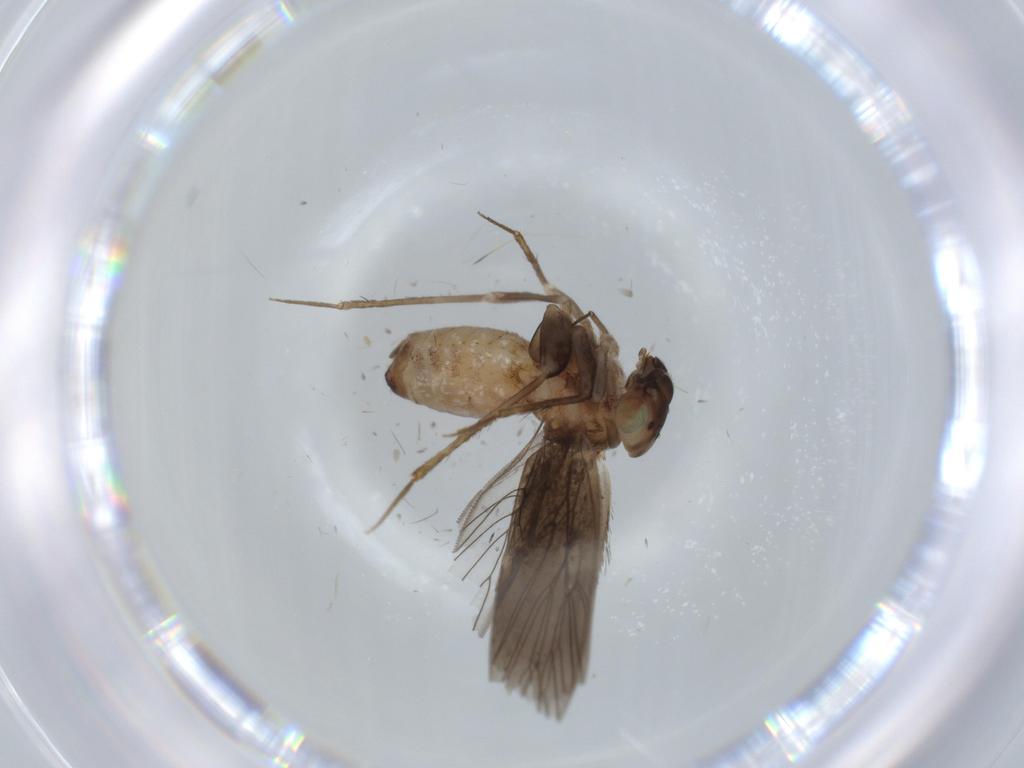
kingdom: Animalia
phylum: Arthropoda
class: Insecta
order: Psocodea
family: Lepidopsocidae
